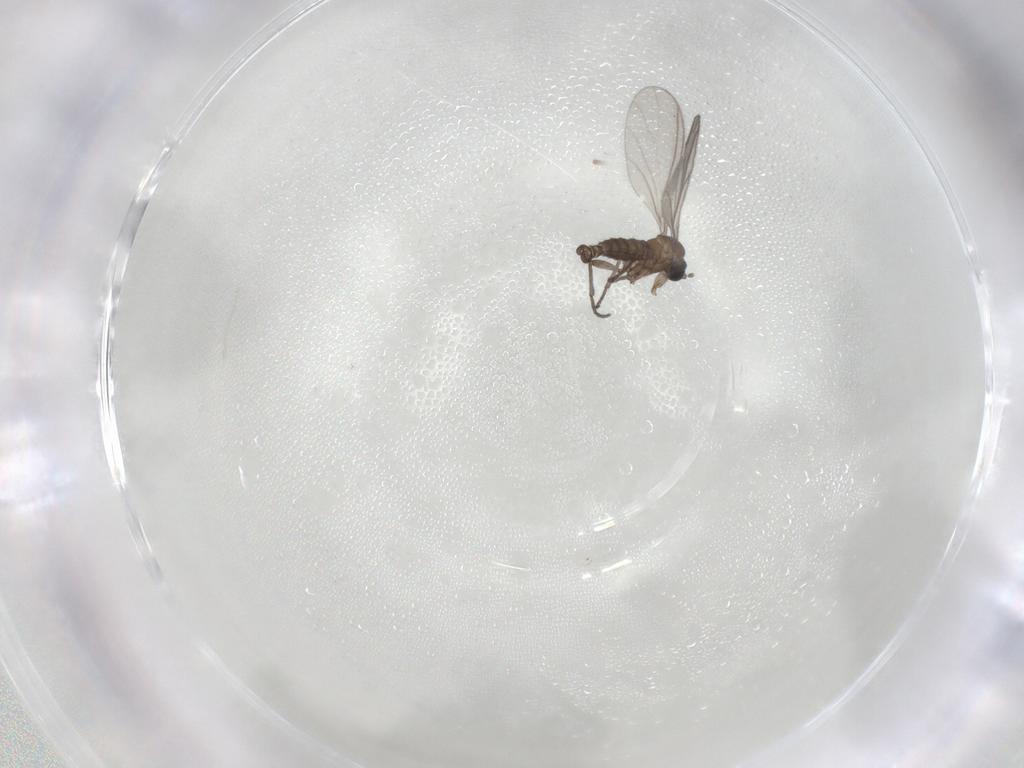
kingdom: Animalia
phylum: Arthropoda
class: Insecta
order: Diptera
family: Sciaridae
